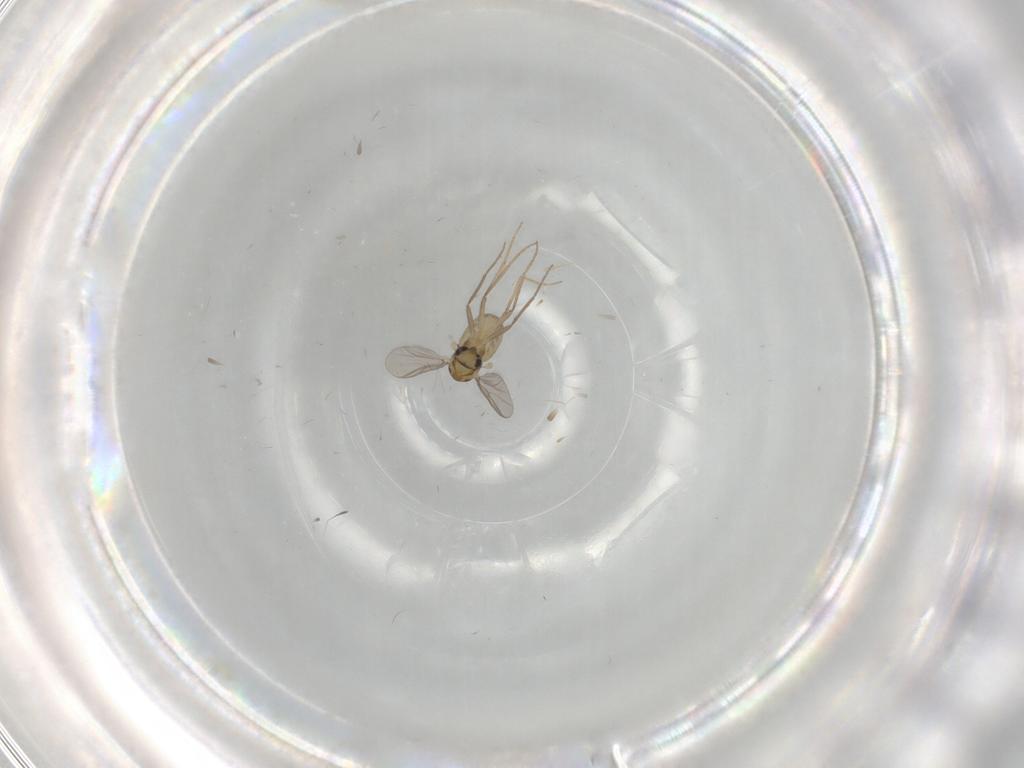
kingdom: Animalia
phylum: Arthropoda
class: Insecta
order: Diptera
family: Chironomidae
